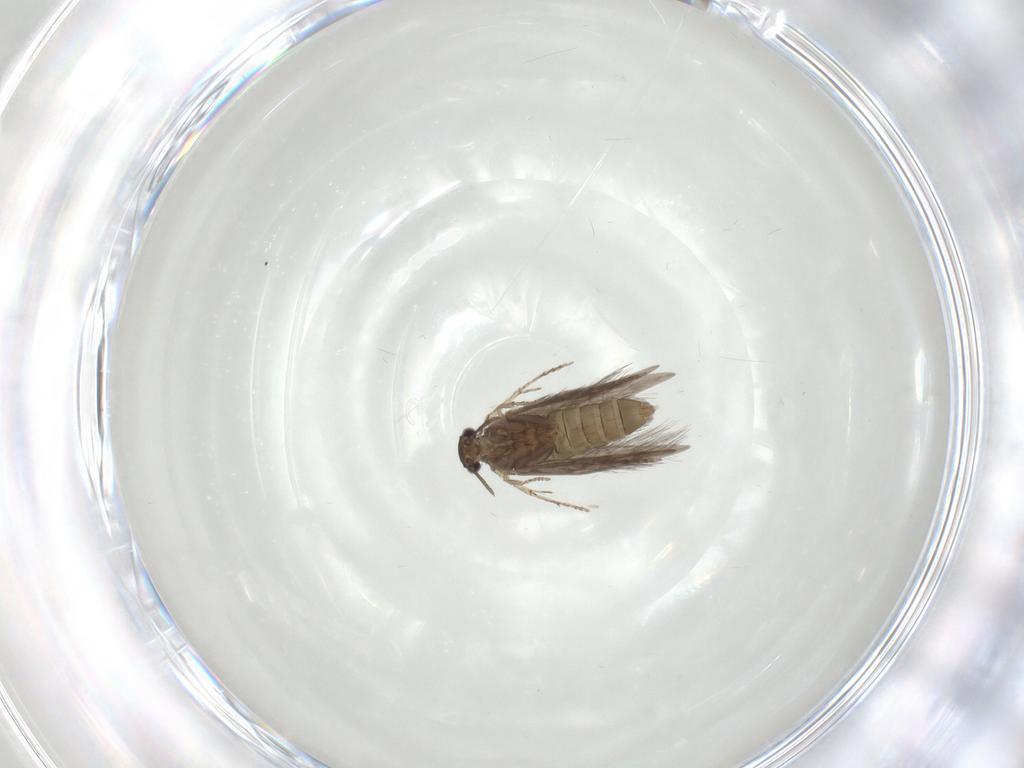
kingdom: Animalia
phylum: Arthropoda
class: Insecta
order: Trichoptera
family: Hydroptilidae
